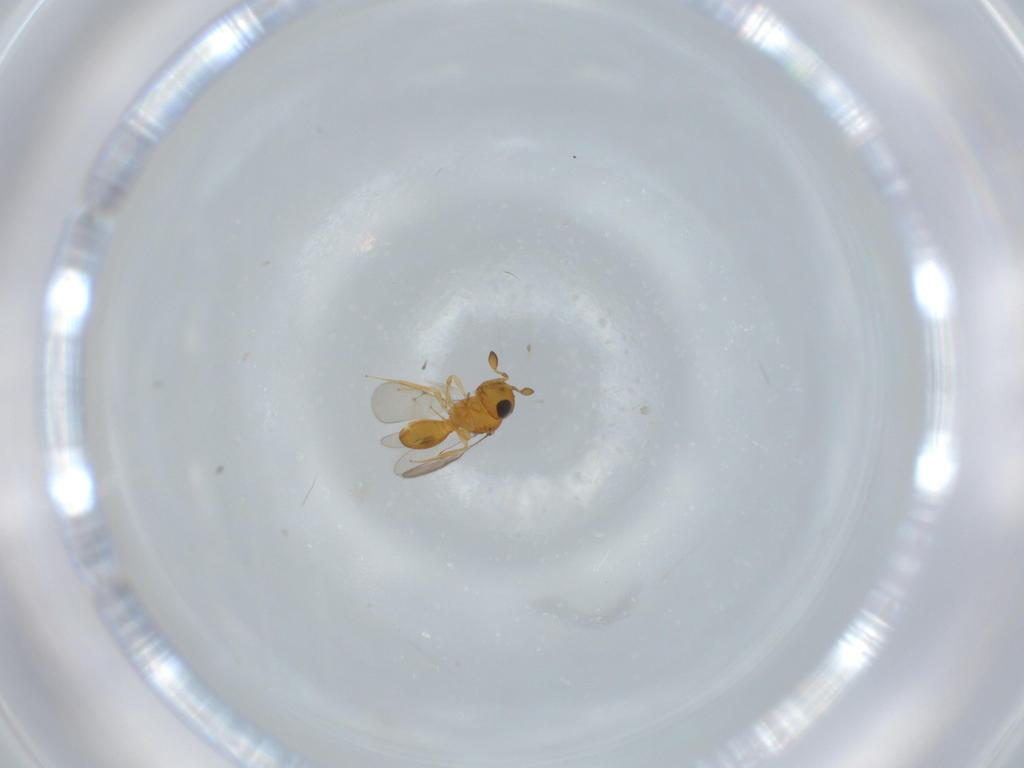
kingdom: Animalia
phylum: Arthropoda
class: Insecta
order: Hymenoptera
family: Scelionidae
